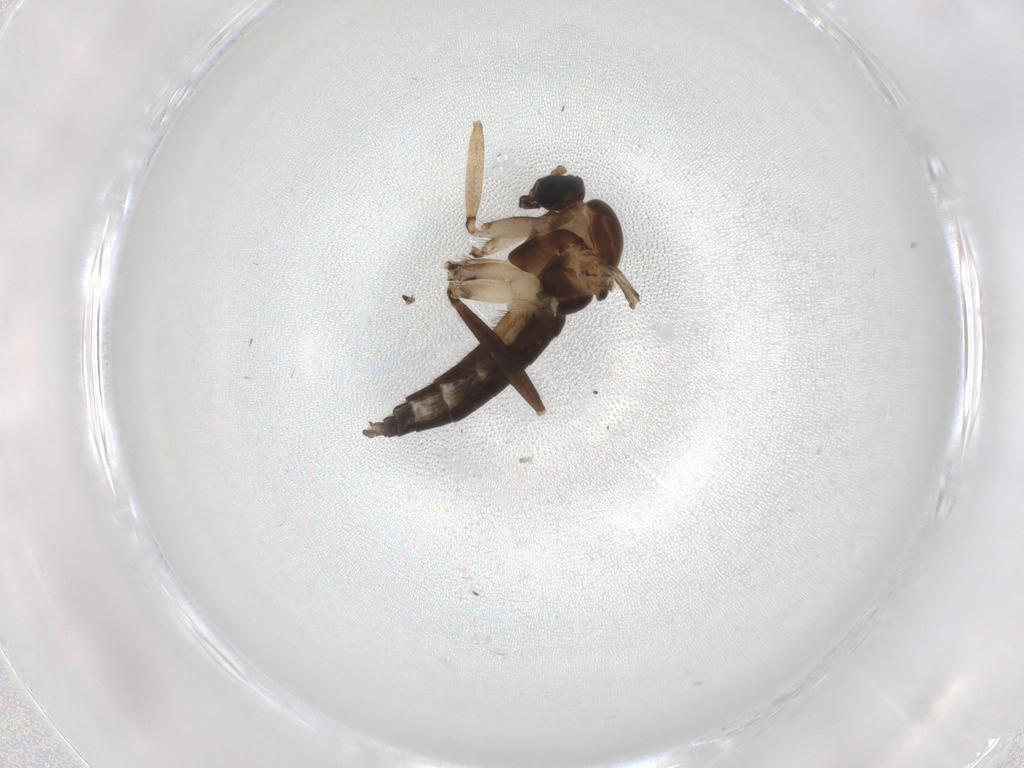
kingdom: Animalia
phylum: Arthropoda
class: Insecta
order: Diptera
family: Sciaridae
